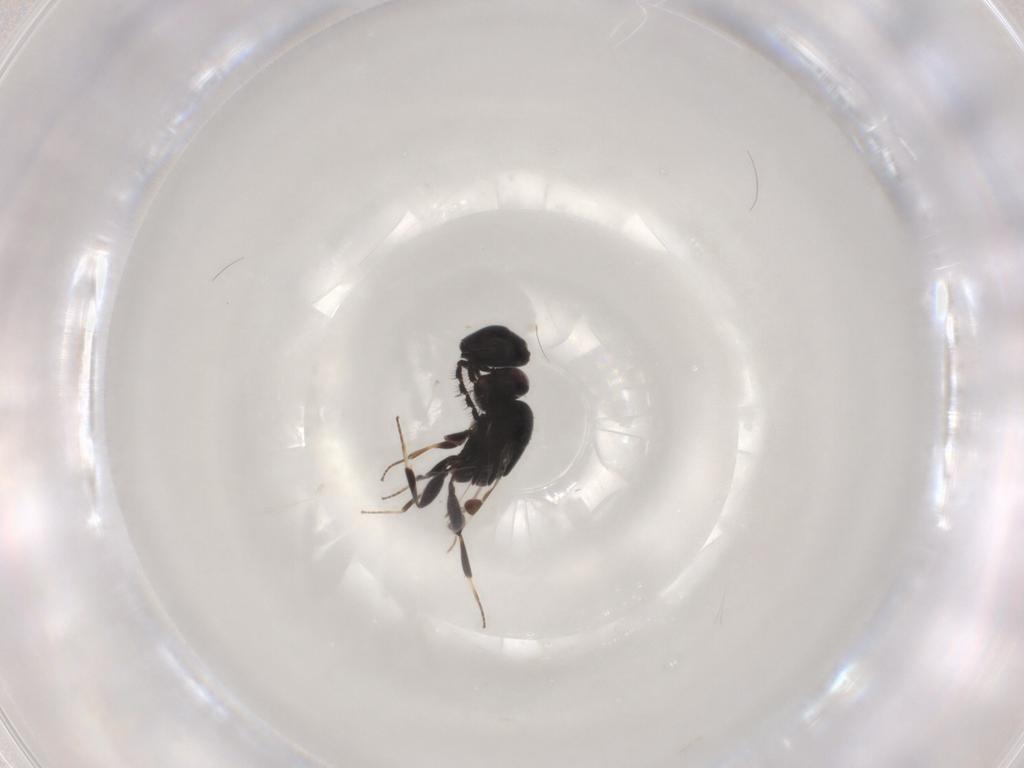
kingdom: Animalia
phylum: Arthropoda
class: Insecta
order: Hymenoptera
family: Megaspilidae
